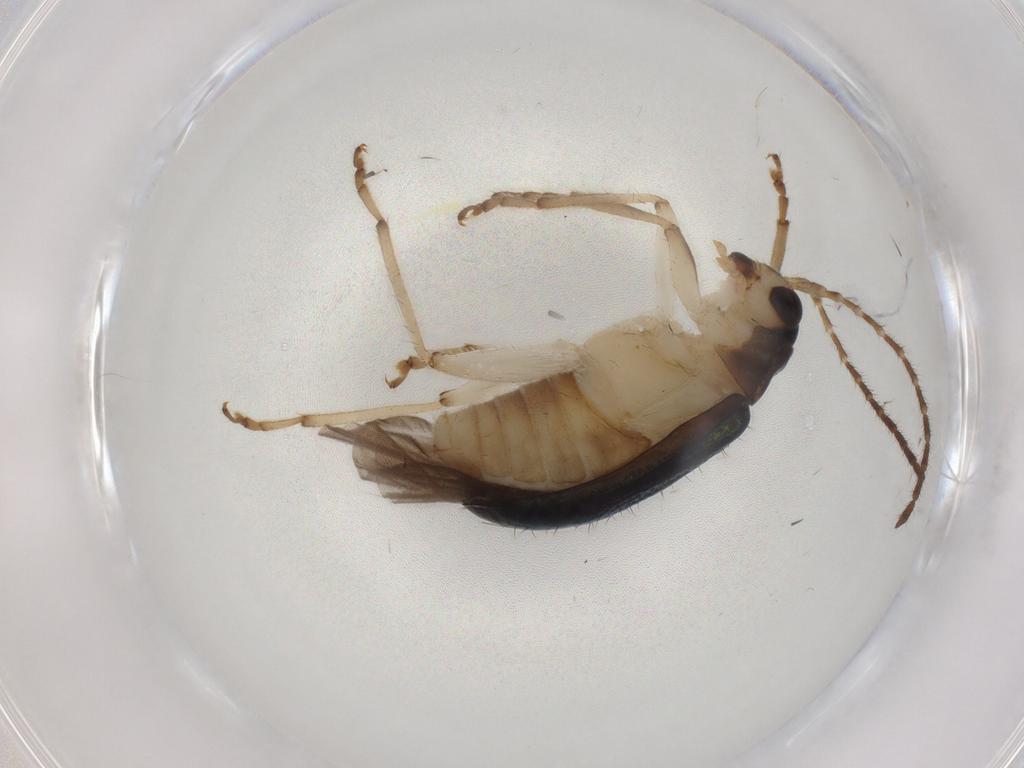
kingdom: Animalia
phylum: Arthropoda
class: Insecta
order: Coleoptera
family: Chrysomelidae
